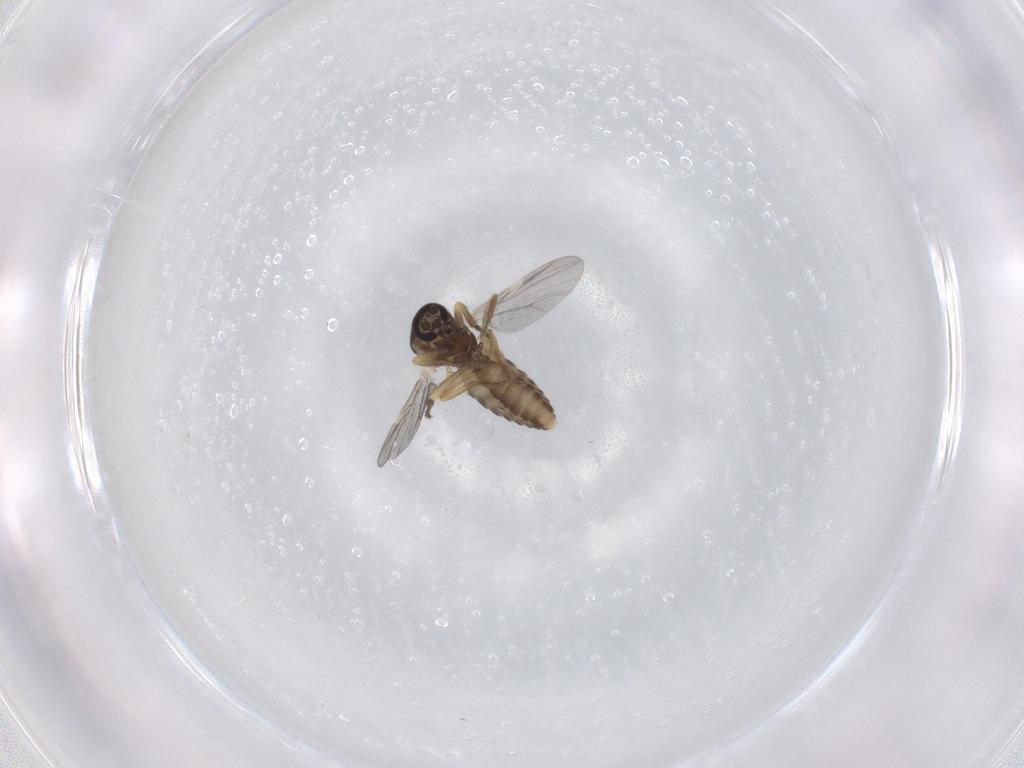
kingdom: Animalia
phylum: Arthropoda
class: Insecta
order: Diptera
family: Ceratopogonidae
